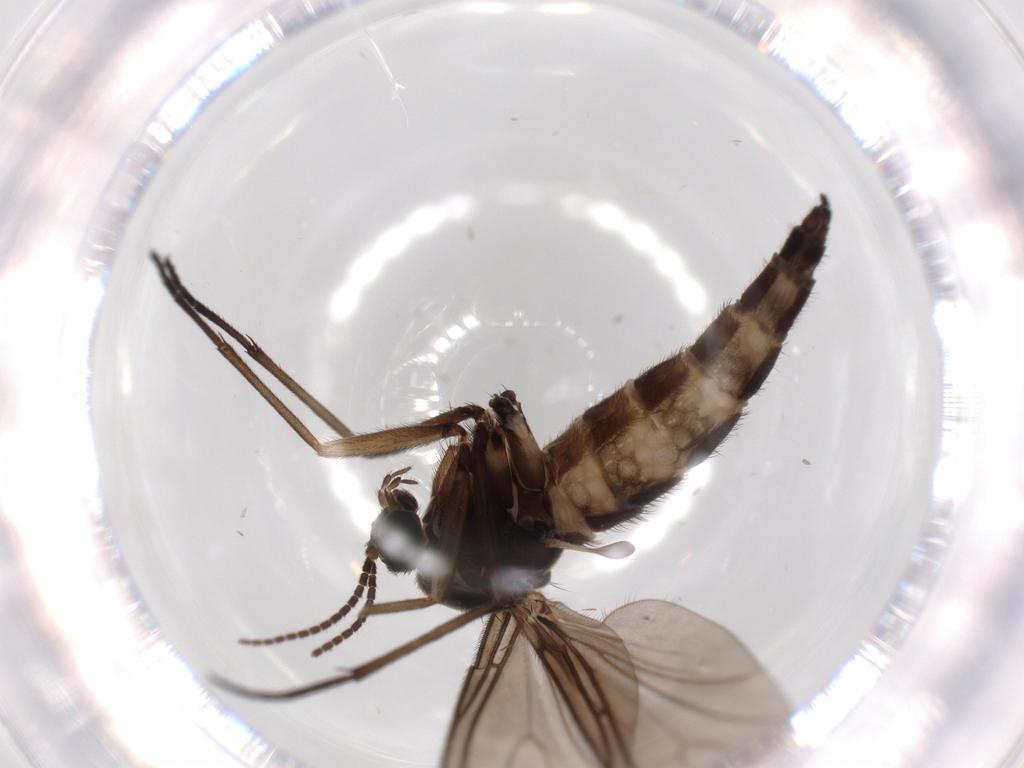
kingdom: Animalia
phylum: Arthropoda
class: Insecta
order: Diptera
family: Sciaridae
